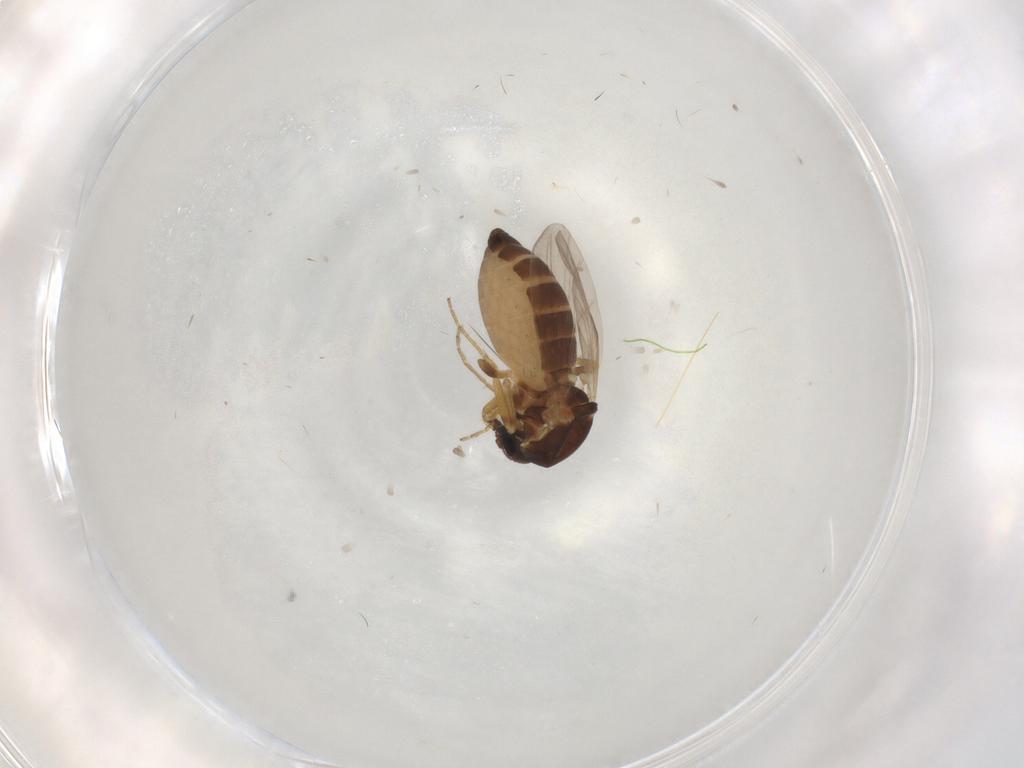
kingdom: Animalia
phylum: Arthropoda
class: Insecta
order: Diptera
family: Ceratopogonidae
